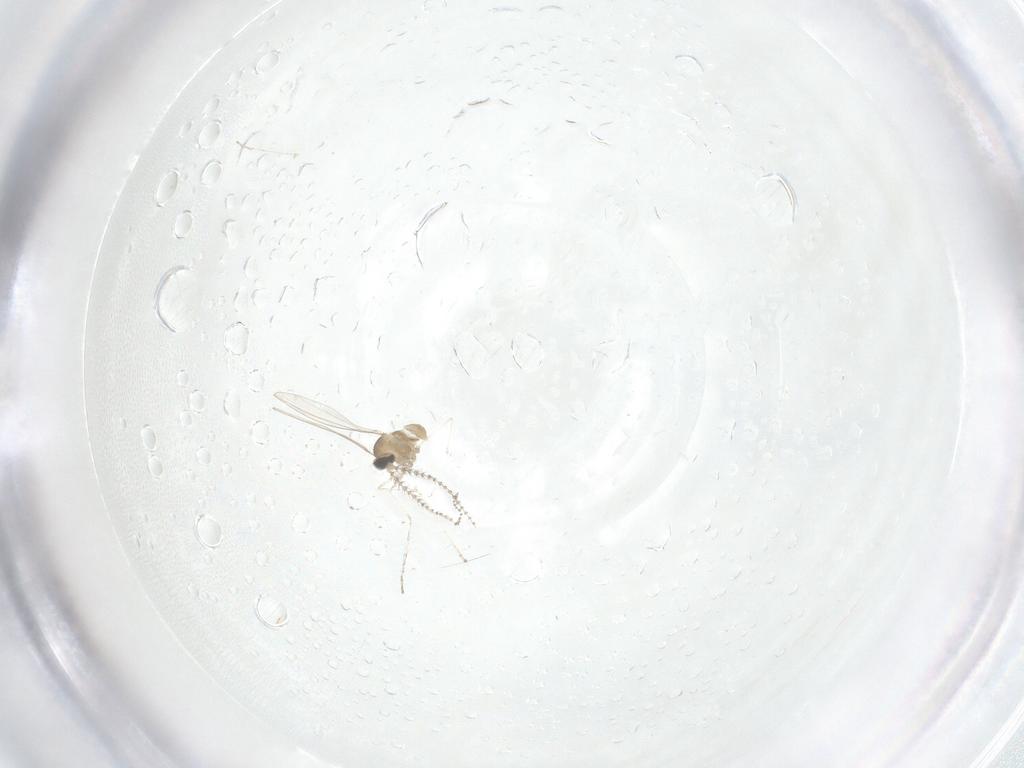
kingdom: Animalia
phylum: Arthropoda
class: Insecta
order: Diptera
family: Cecidomyiidae
